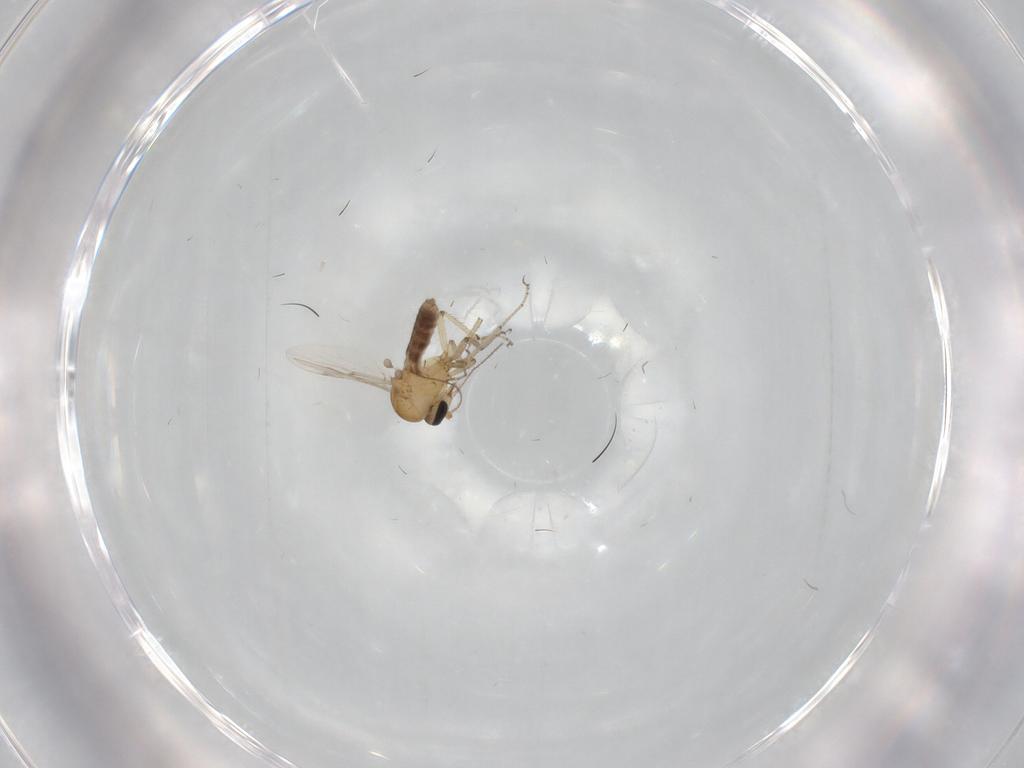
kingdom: Animalia
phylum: Arthropoda
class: Insecta
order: Diptera
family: Ceratopogonidae
